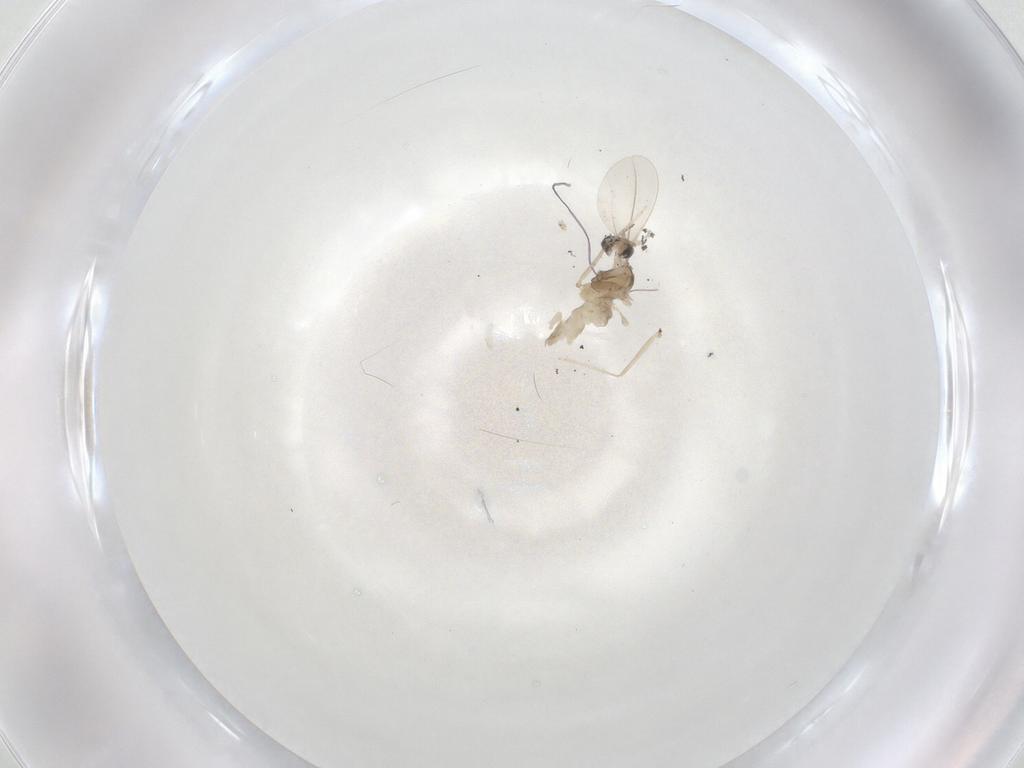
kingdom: Animalia
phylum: Arthropoda
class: Insecta
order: Diptera
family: Cecidomyiidae
